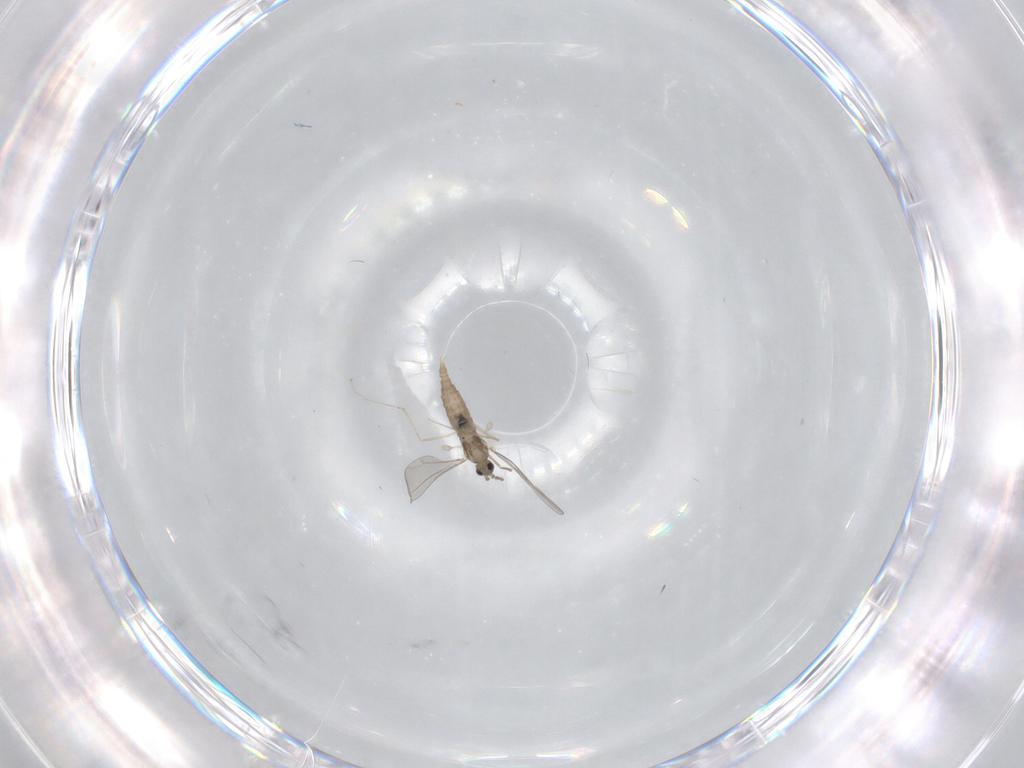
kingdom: Animalia
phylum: Arthropoda
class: Insecta
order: Diptera
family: Phoridae
